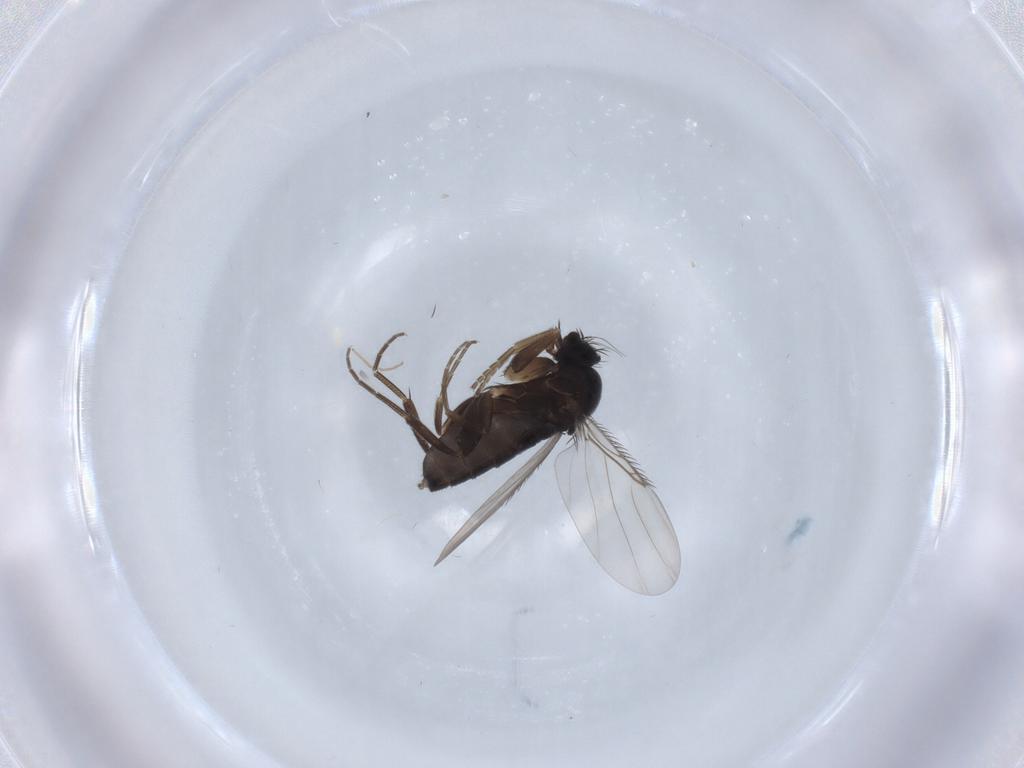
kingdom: Animalia
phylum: Arthropoda
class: Insecta
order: Diptera
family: Phoridae
